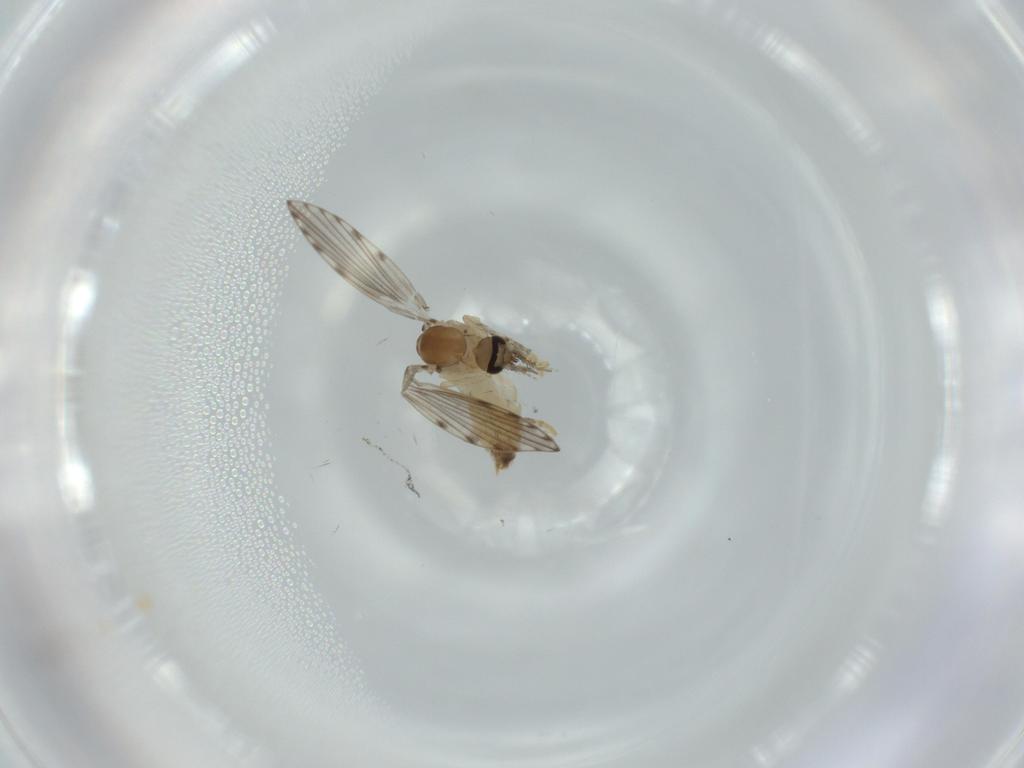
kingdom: Animalia
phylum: Arthropoda
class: Insecta
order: Diptera
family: Psychodidae
